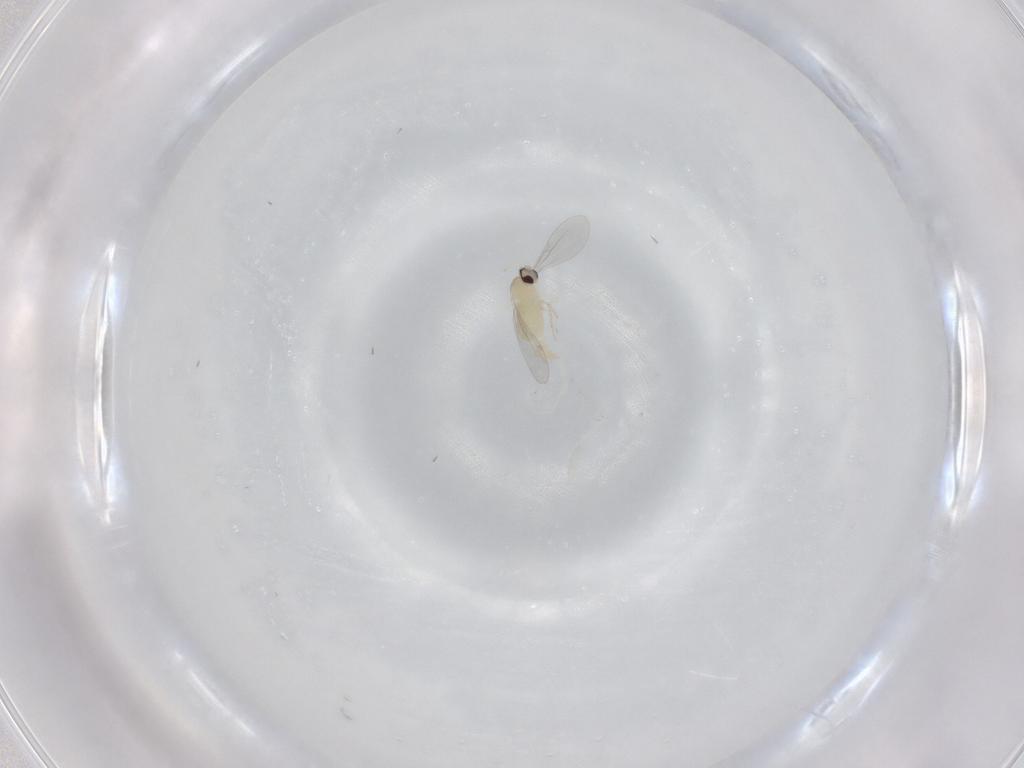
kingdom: Animalia
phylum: Arthropoda
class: Insecta
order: Diptera
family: Cecidomyiidae
